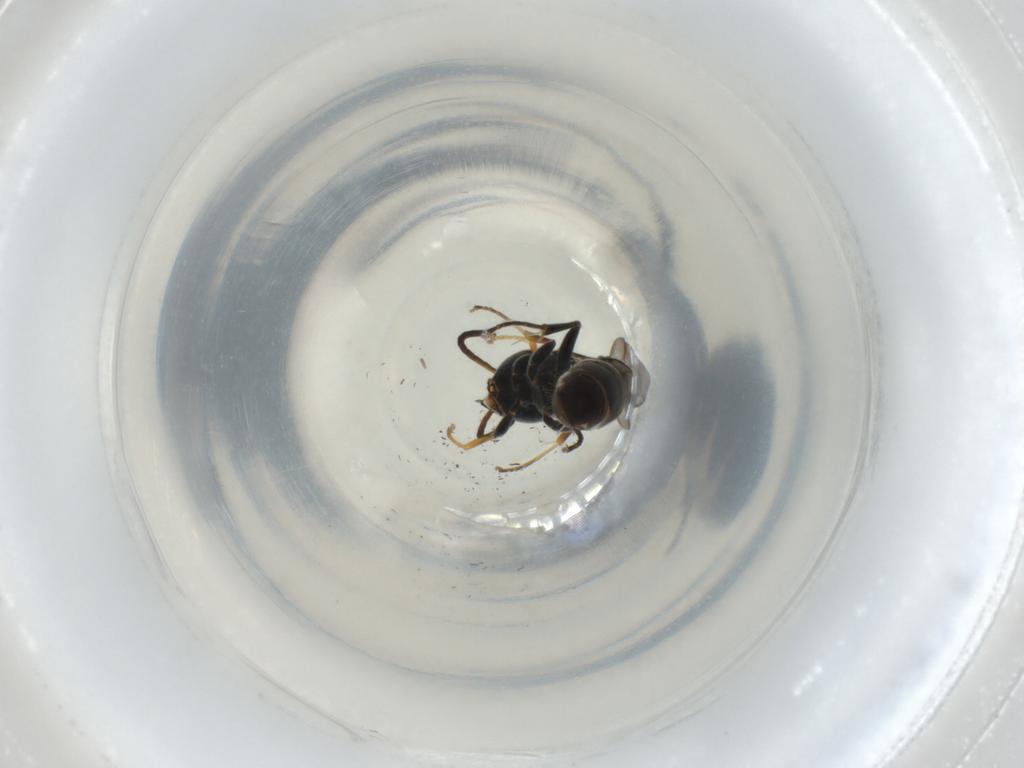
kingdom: Animalia
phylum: Arthropoda
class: Insecta
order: Hymenoptera
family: Crabronidae
